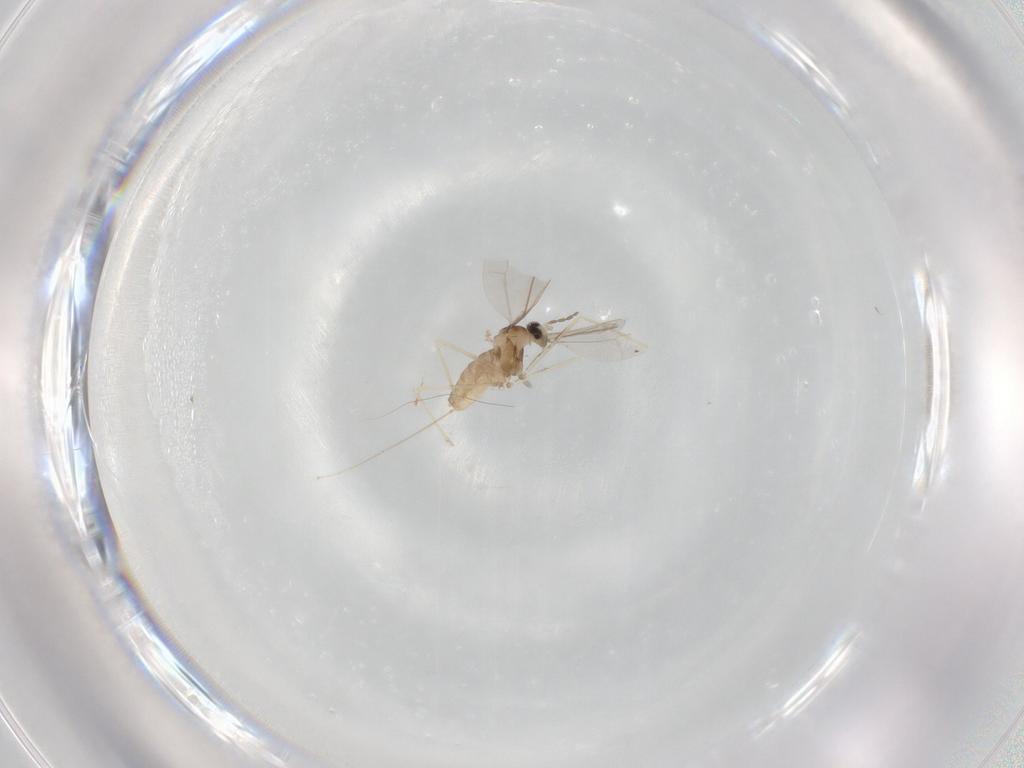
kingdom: Animalia
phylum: Arthropoda
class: Insecta
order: Diptera
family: Cecidomyiidae
